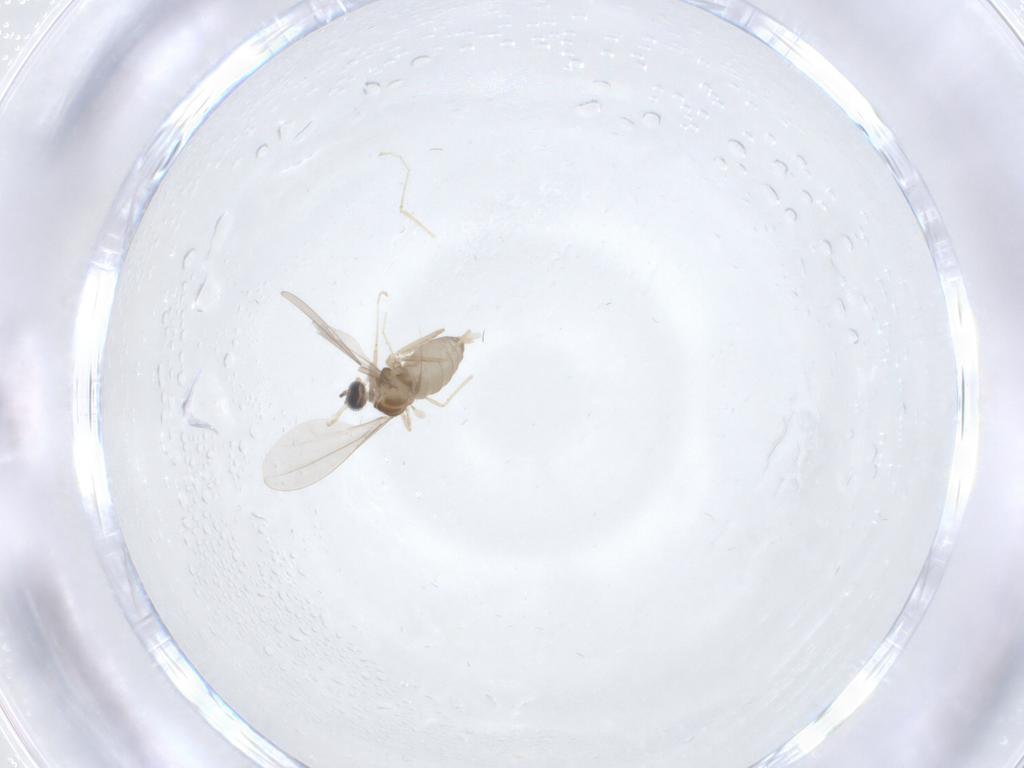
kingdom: Animalia
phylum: Arthropoda
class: Insecta
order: Diptera
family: Cecidomyiidae
